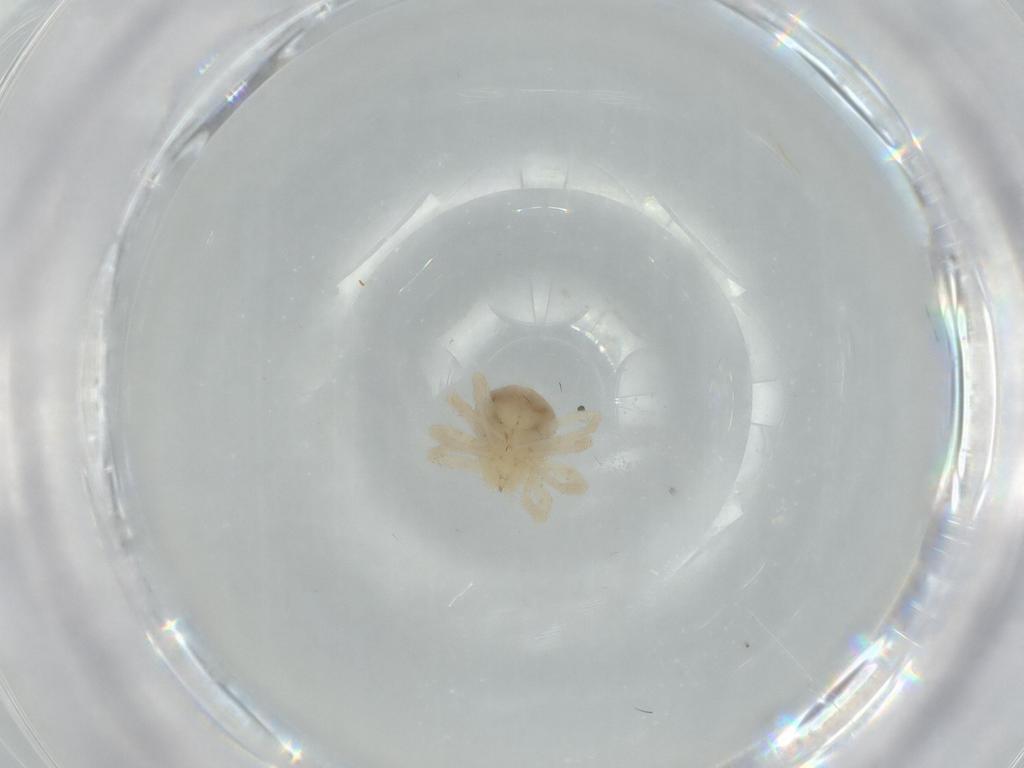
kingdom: Animalia
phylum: Arthropoda
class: Arachnida
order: Trombidiformes
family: Anystidae
